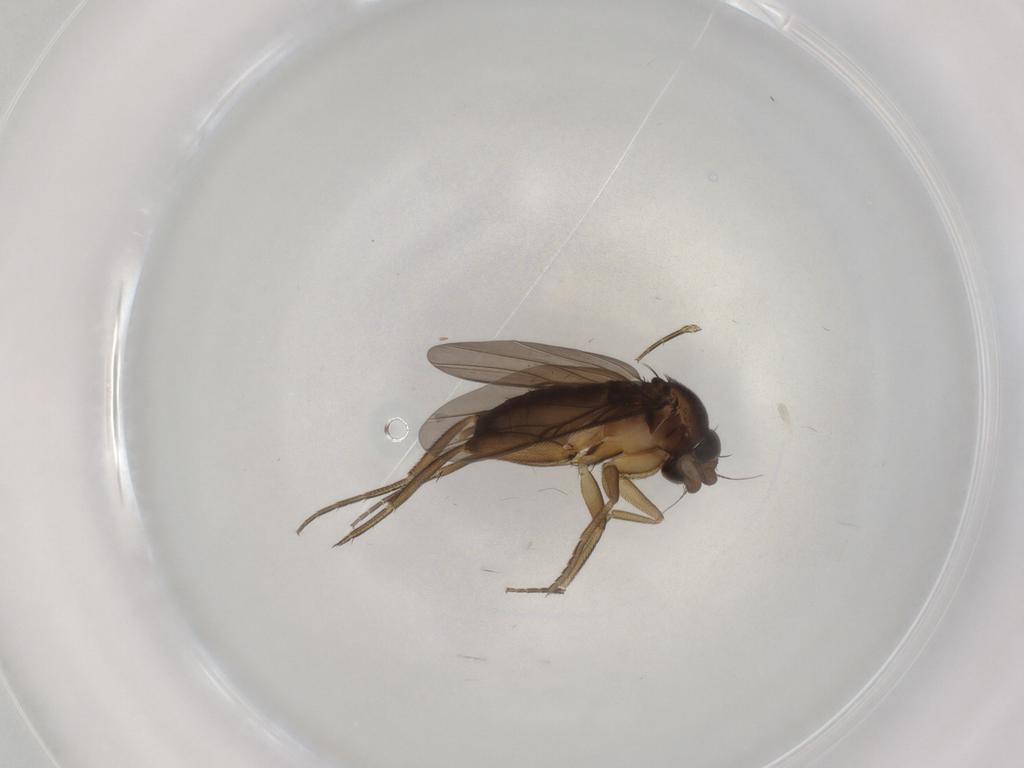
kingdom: Animalia
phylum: Arthropoda
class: Insecta
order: Diptera
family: Phoridae
